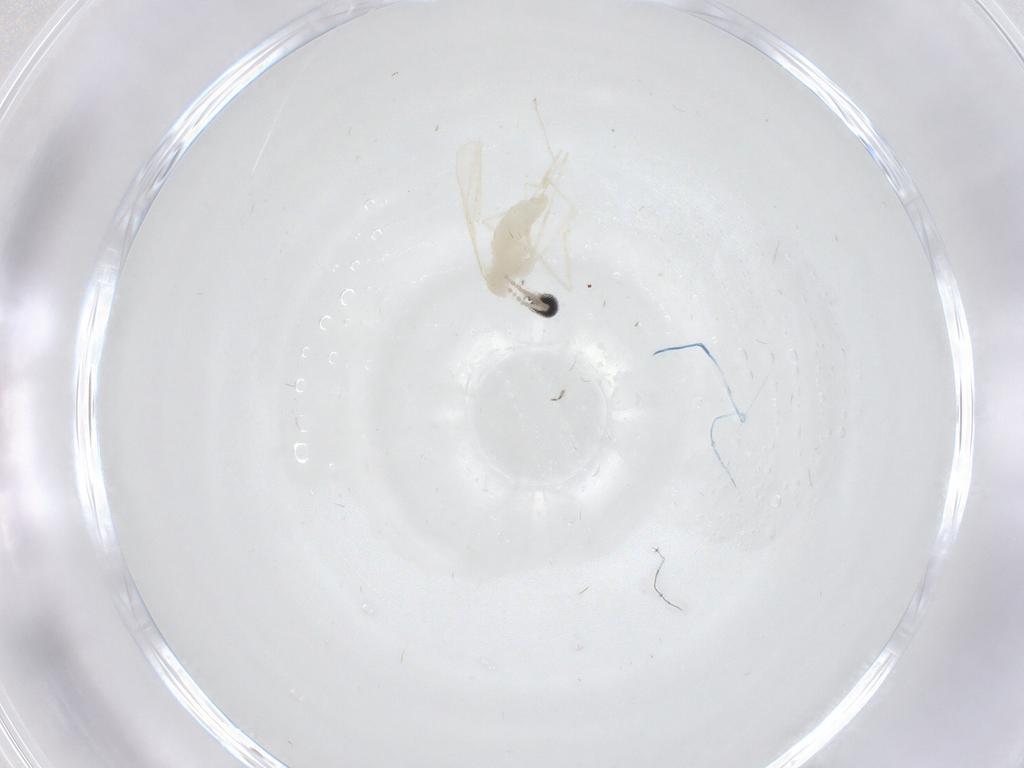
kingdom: Animalia
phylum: Arthropoda
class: Insecta
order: Diptera
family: Cecidomyiidae
